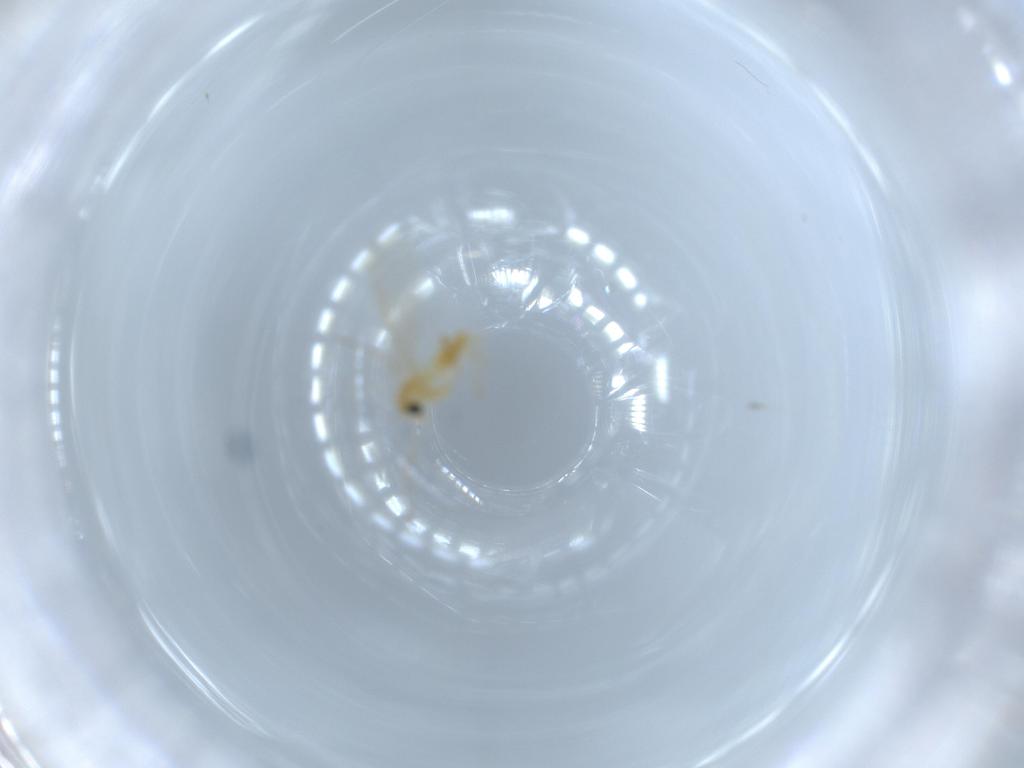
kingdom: Animalia
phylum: Arthropoda
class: Insecta
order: Diptera
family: Chironomidae
